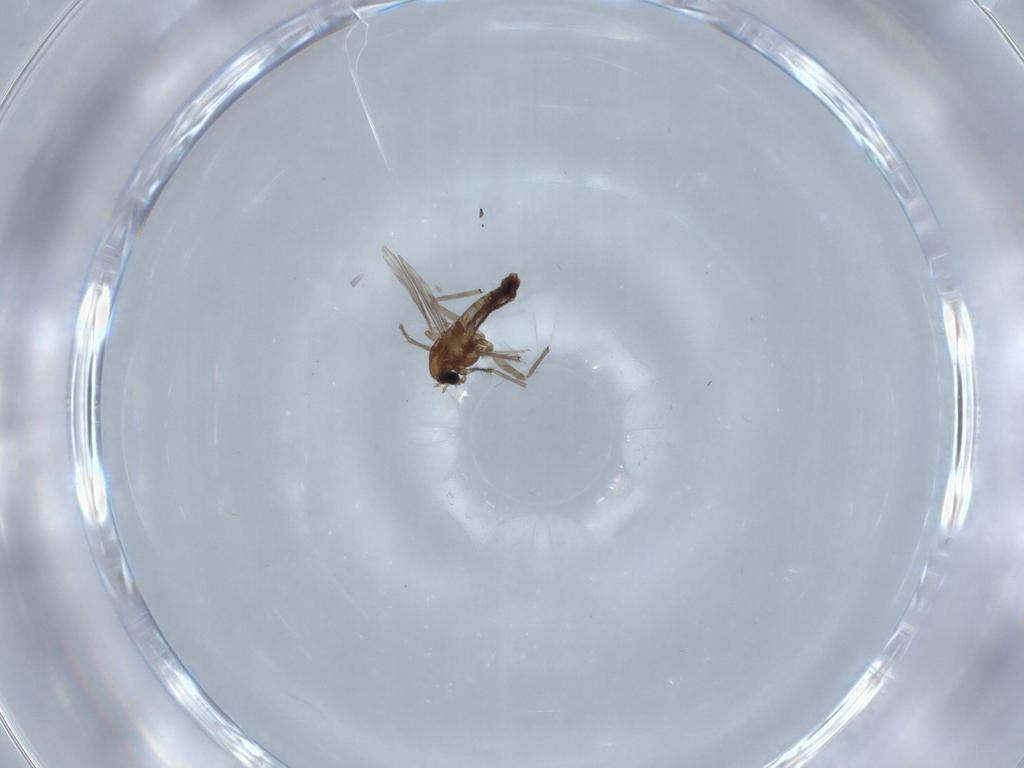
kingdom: Animalia
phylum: Arthropoda
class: Insecta
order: Diptera
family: Chironomidae
